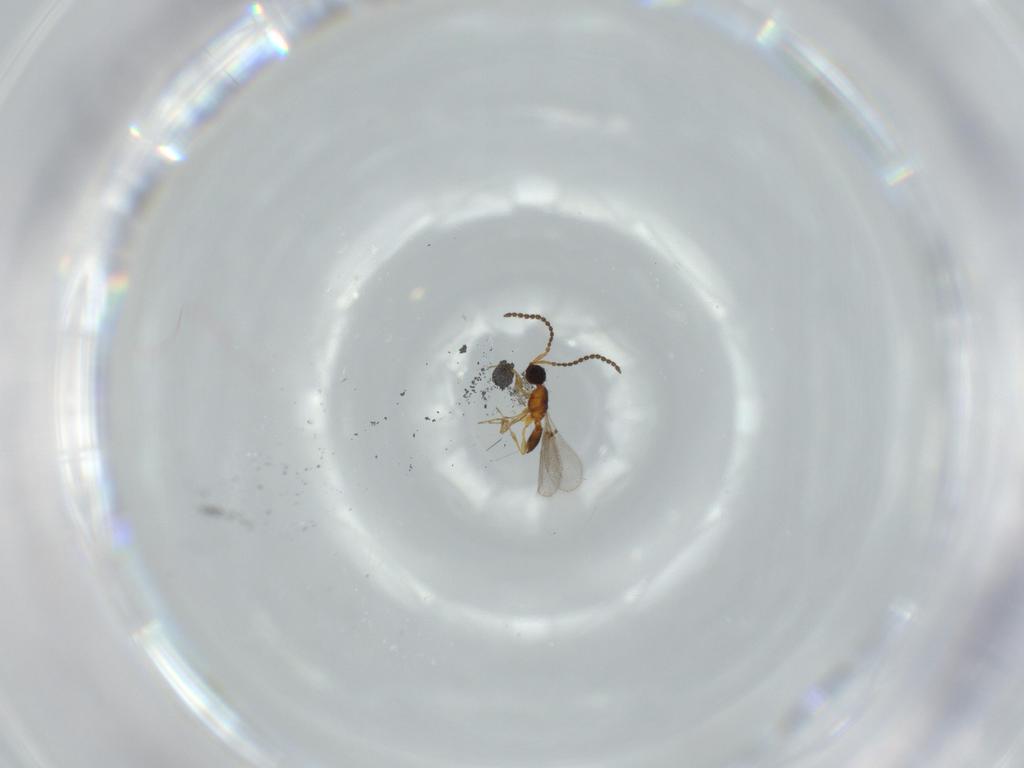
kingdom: Animalia
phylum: Arthropoda
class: Insecta
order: Hymenoptera
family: Diapriidae
